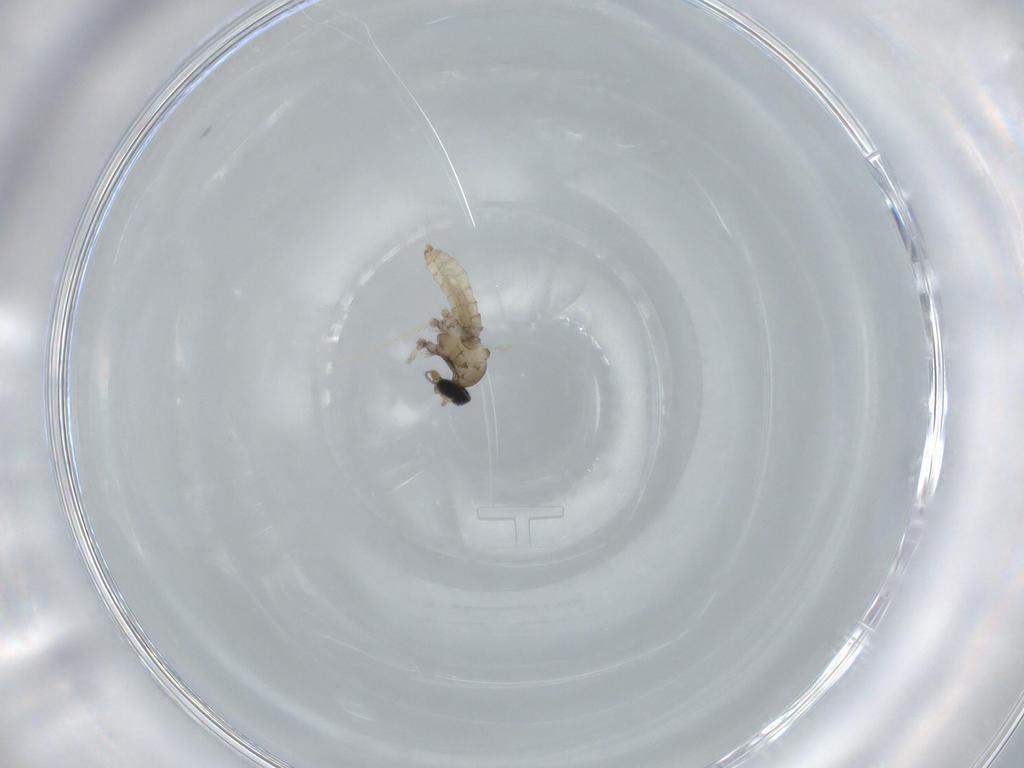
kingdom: Animalia
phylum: Arthropoda
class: Insecta
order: Diptera
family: Cecidomyiidae
